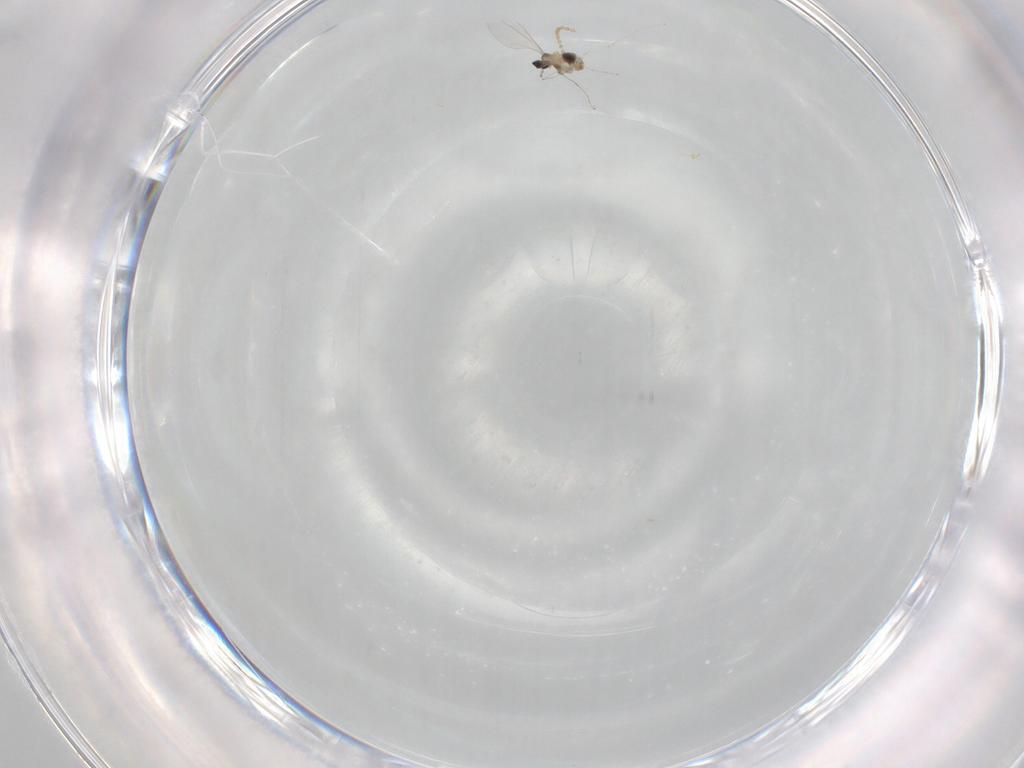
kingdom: Animalia
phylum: Arthropoda
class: Insecta
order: Diptera
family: Cecidomyiidae
